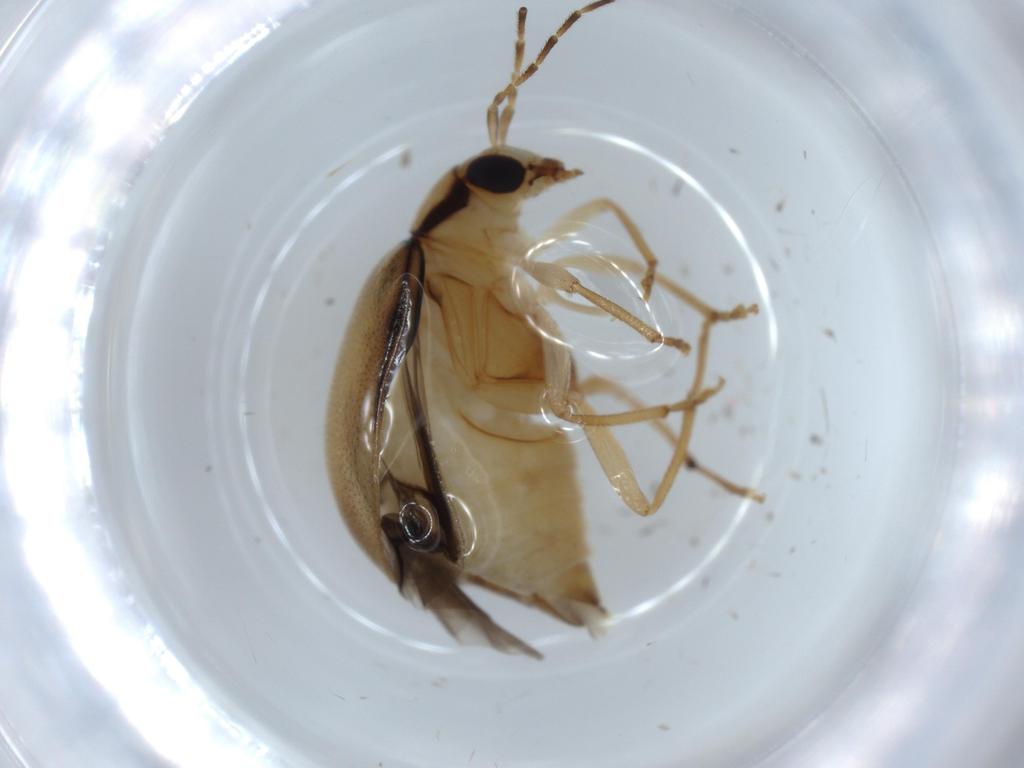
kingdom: Animalia
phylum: Arthropoda
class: Insecta
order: Coleoptera
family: Chrysomelidae
